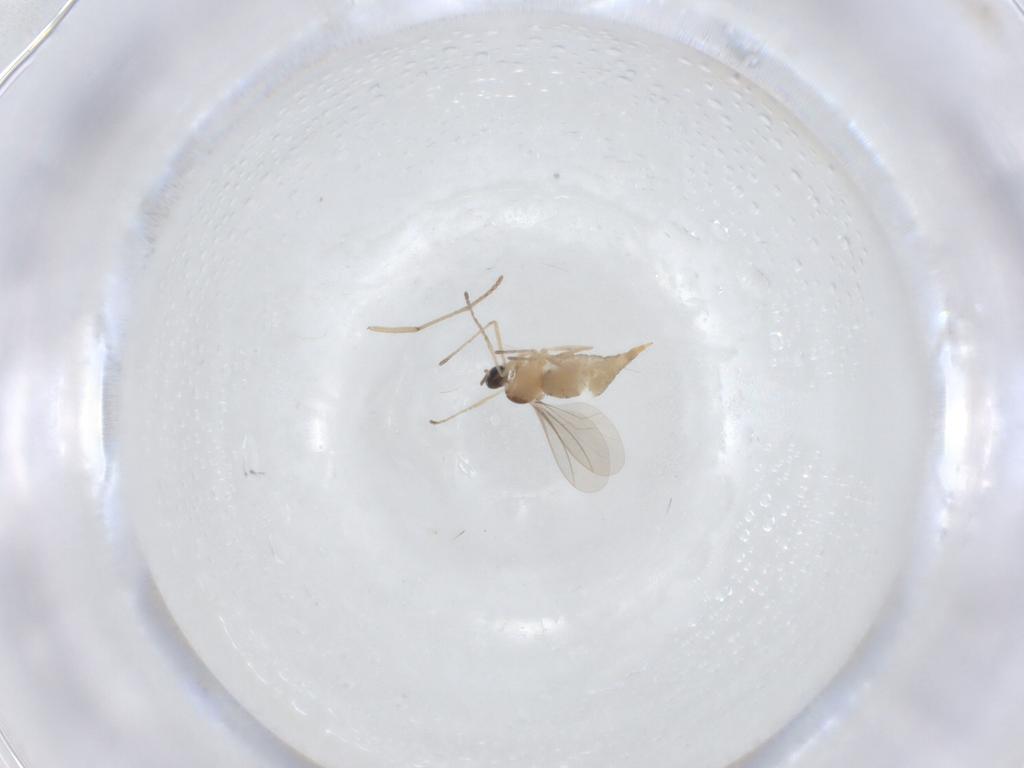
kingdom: Animalia
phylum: Arthropoda
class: Insecta
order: Diptera
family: Cecidomyiidae
